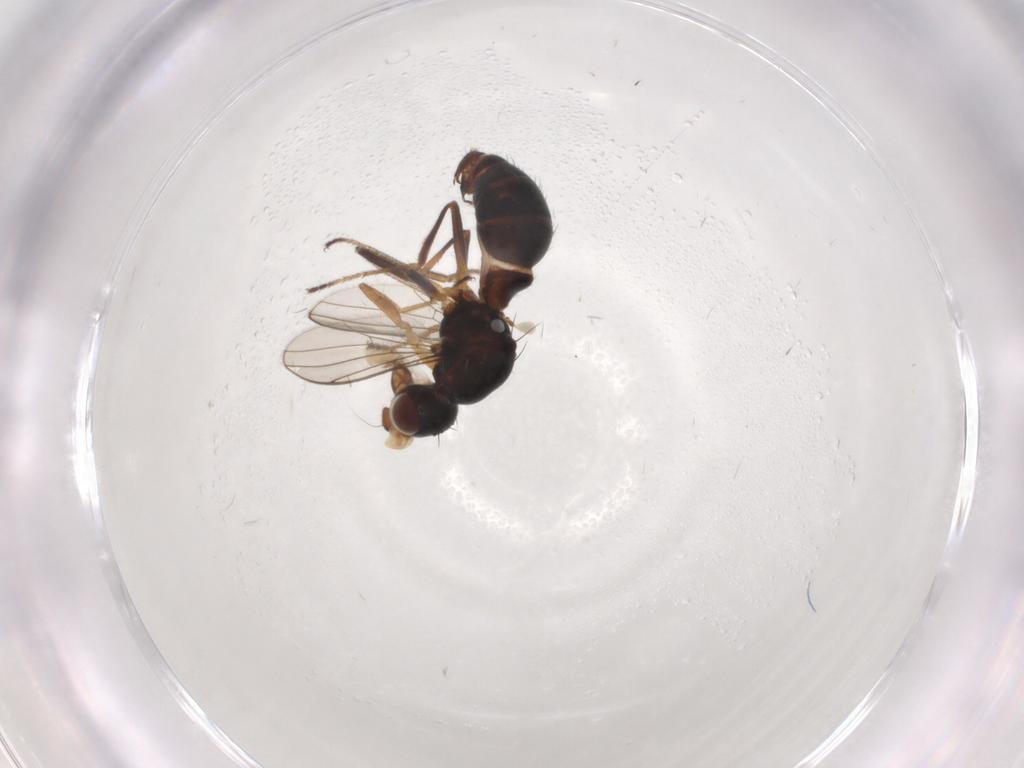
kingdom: Animalia
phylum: Arthropoda
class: Insecta
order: Diptera
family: Sepsidae
